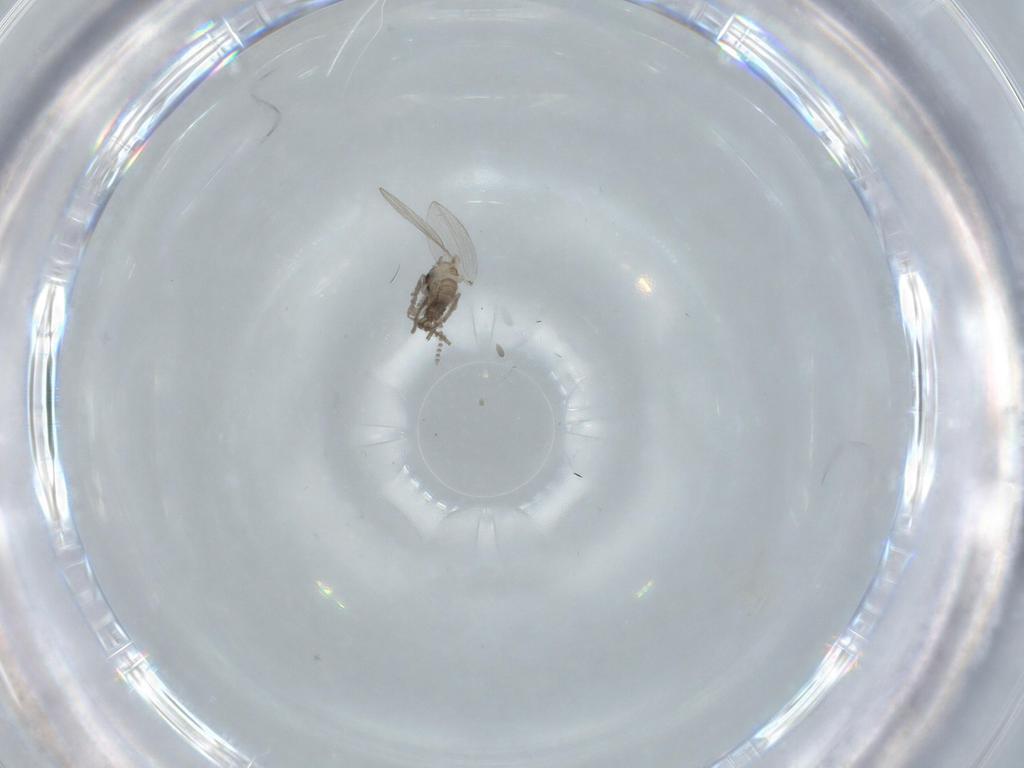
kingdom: Animalia
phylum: Arthropoda
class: Insecta
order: Diptera
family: Psychodidae
